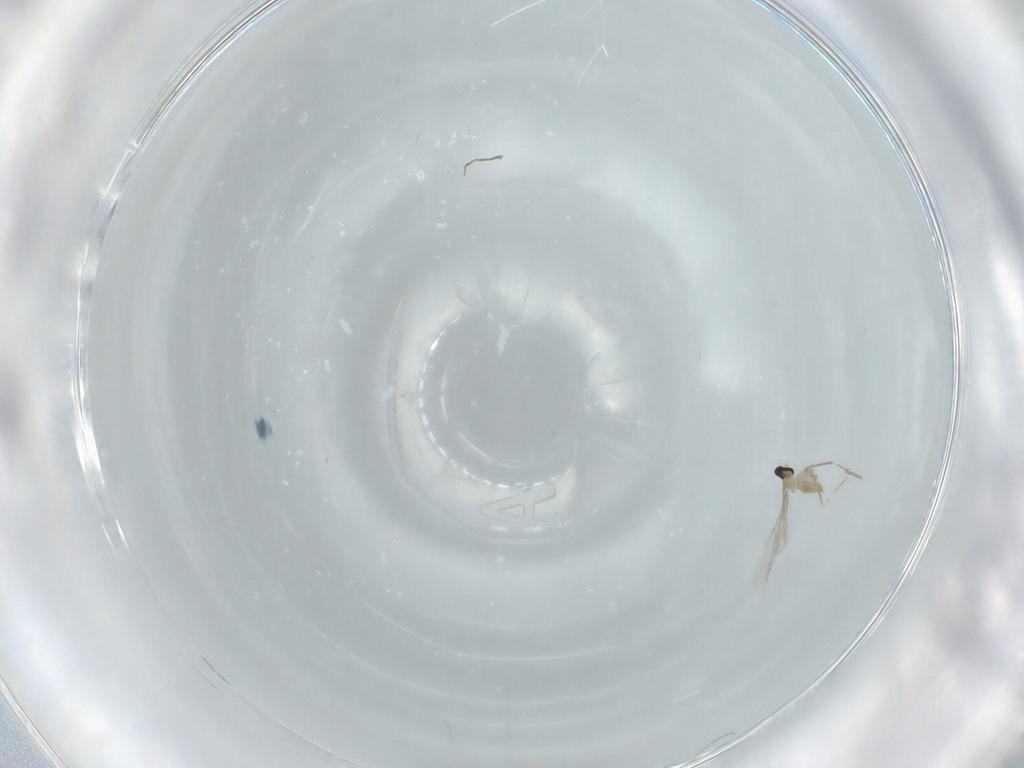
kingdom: Animalia
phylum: Arthropoda
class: Insecta
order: Diptera
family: Cecidomyiidae
